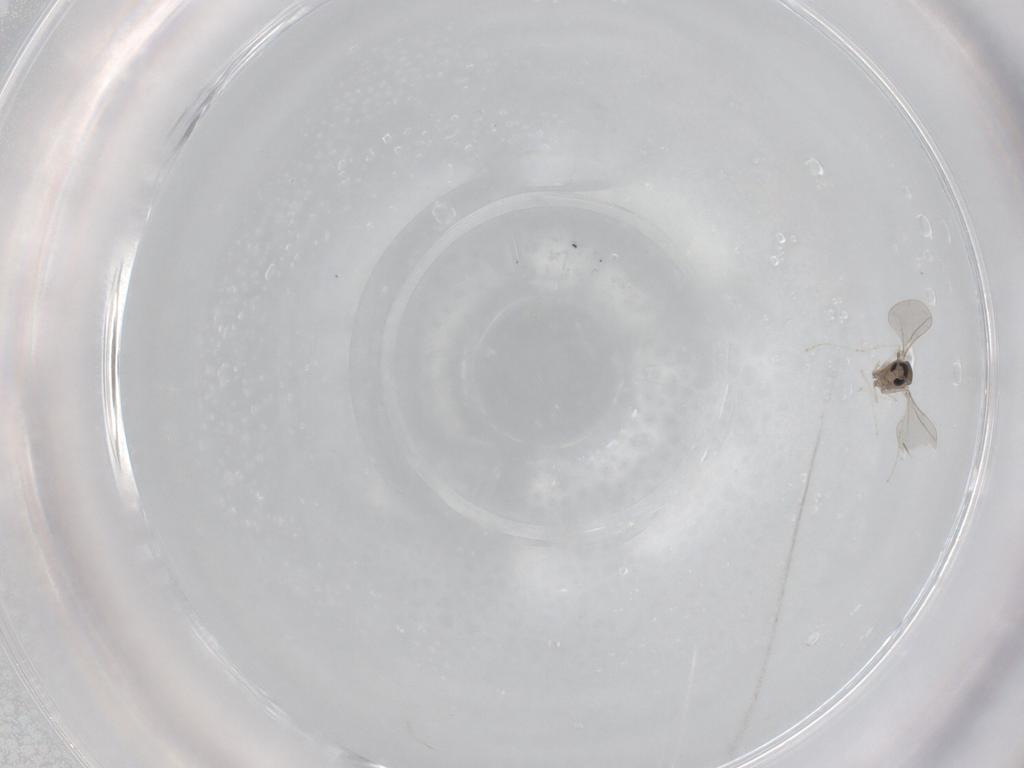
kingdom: Animalia
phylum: Arthropoda
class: Insecta
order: Diptera
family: Cecidomyiidae
